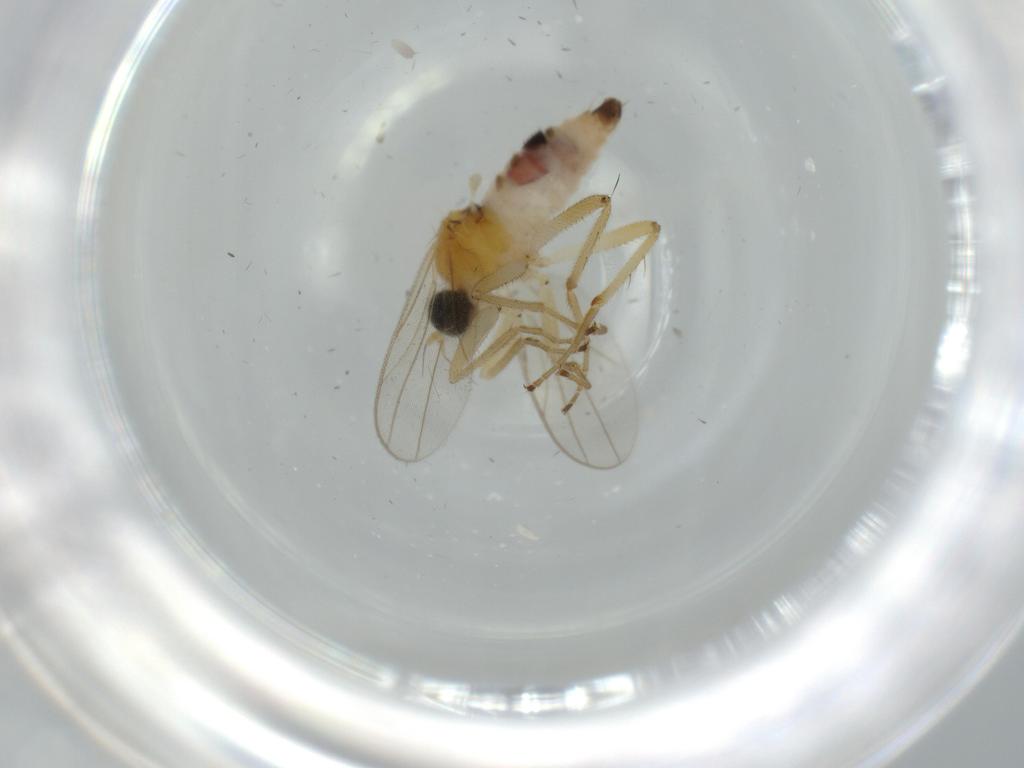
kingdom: Animalia
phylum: Arthropoda
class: Insecta
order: Diptera
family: Hybotidae
